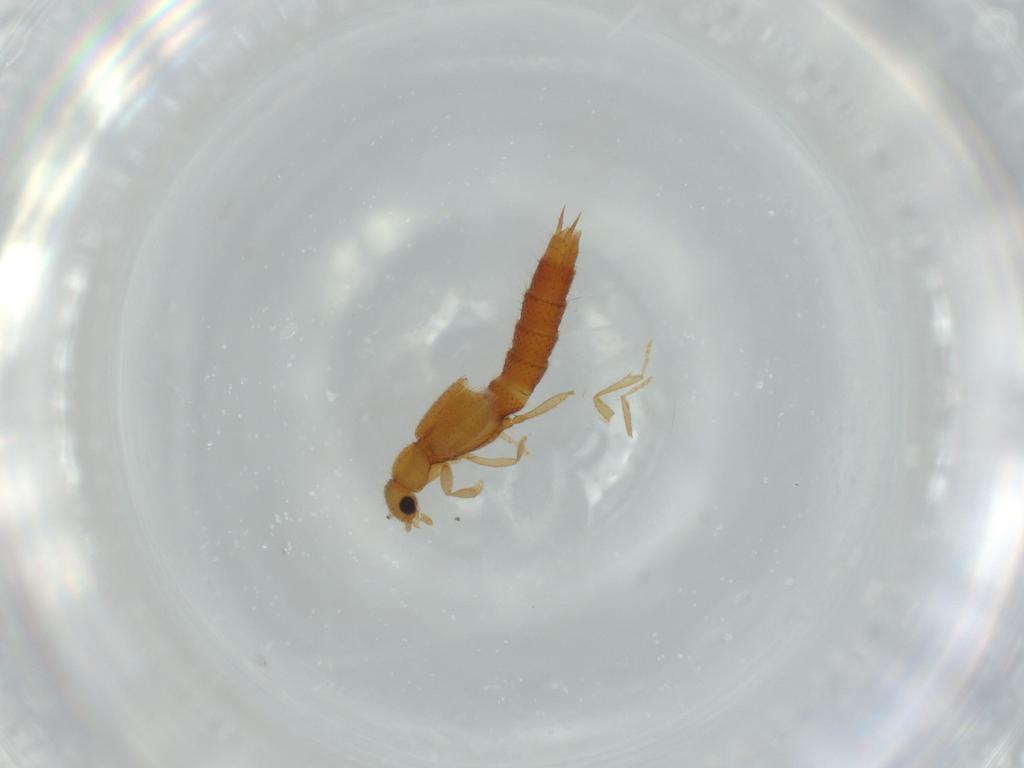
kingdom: Animalia
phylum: Arthropoda
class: Insecta
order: Coleoptera
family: Staphylinidae
